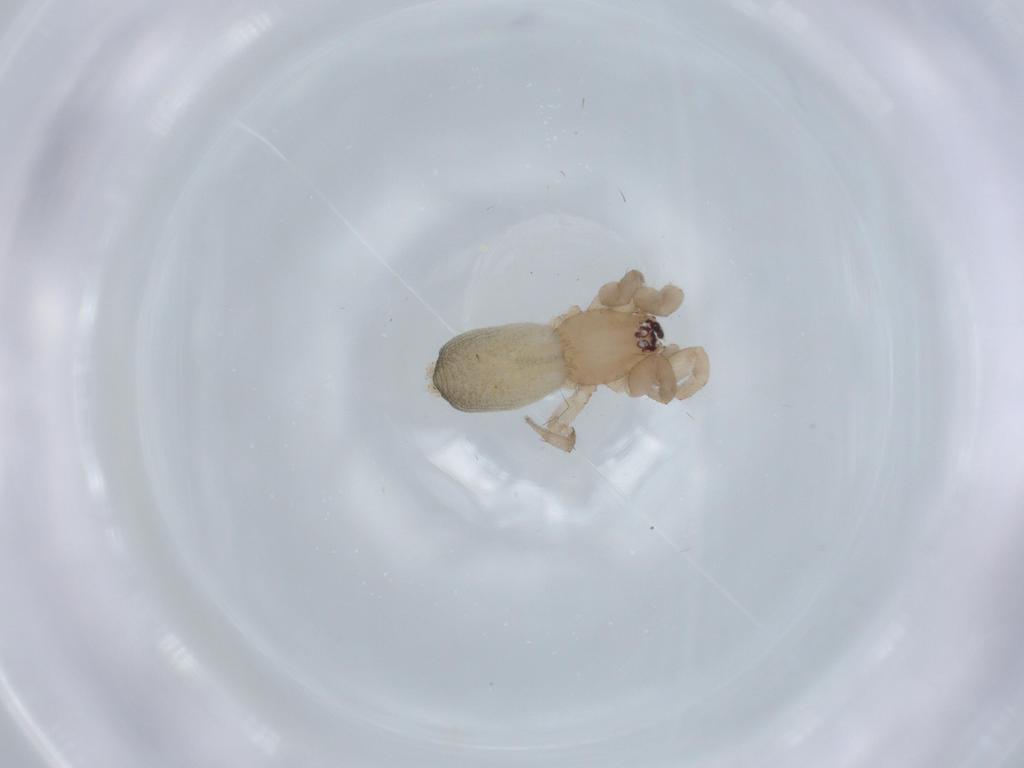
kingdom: Animalia
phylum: Arthropoda
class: Arachnida
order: Araneae
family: Gnaphosidae
